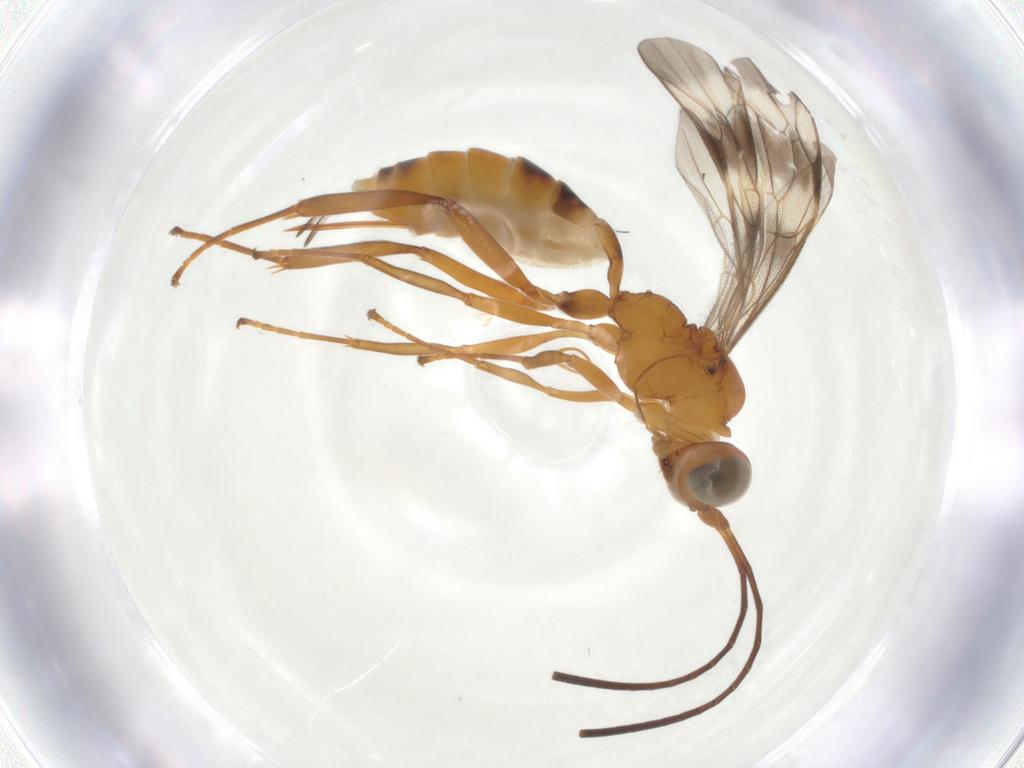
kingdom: Animalia
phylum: Arthropoda
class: Insecta
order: Hymenoptera
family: Ichneumonidae
